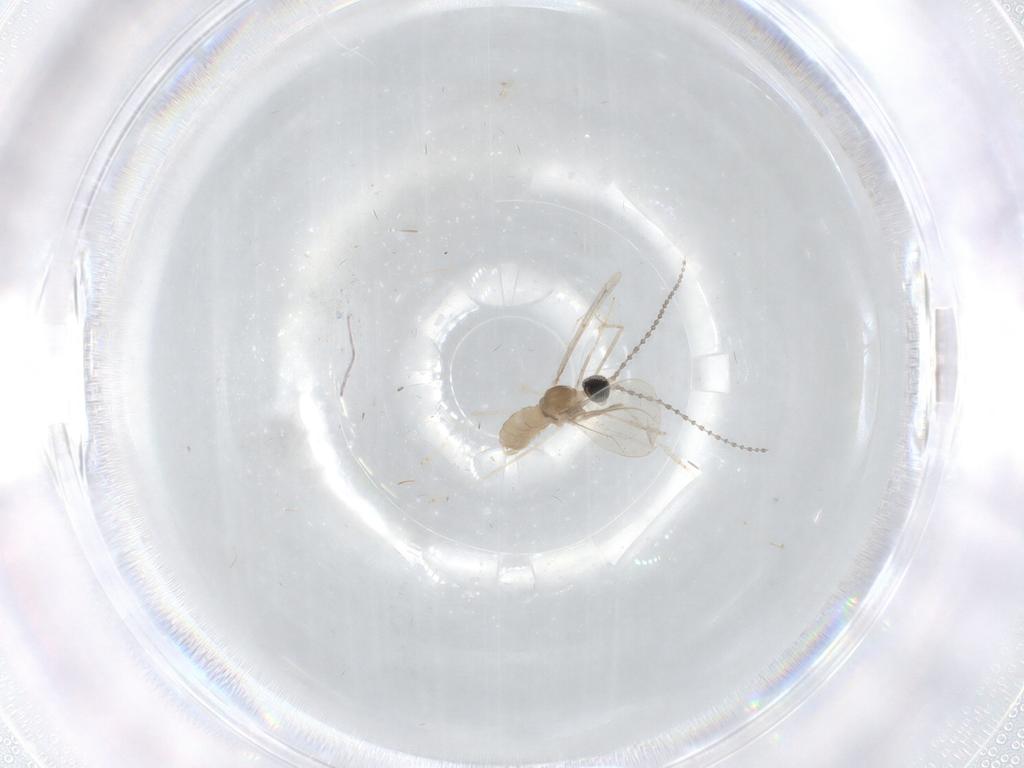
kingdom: Animalia
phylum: Arthropoda
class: Insecta
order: Diptera
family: Cecidomyiidae
